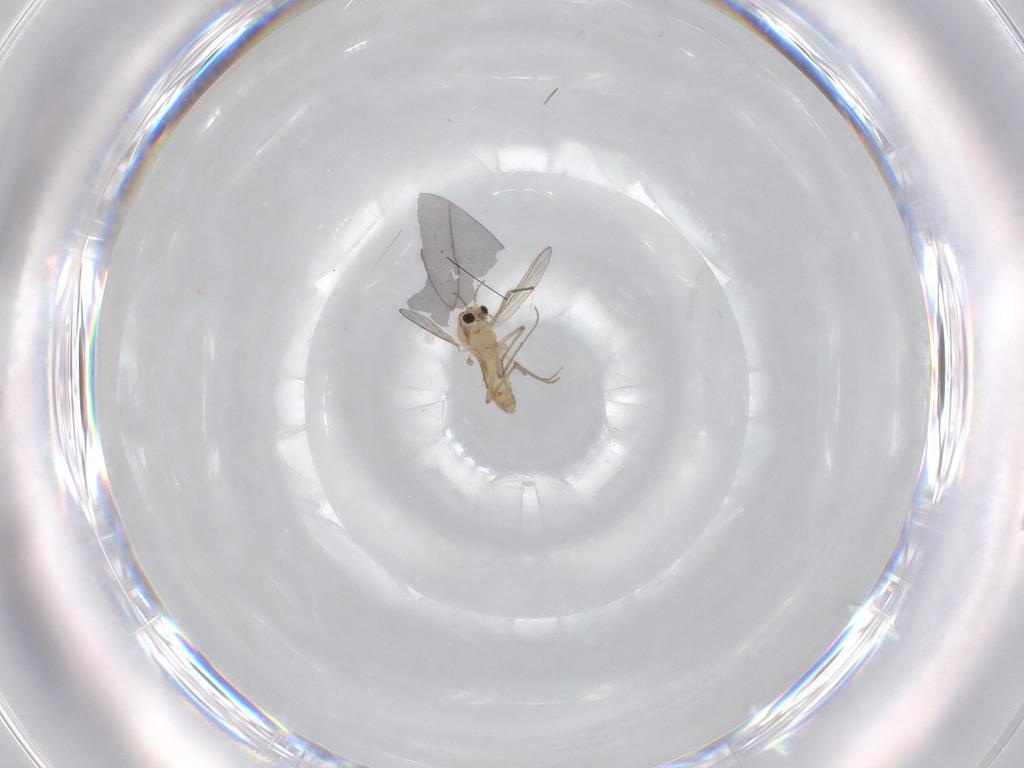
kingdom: Animalia
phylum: Arthropoda
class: Insecta
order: Diptera
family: Chironomidae
